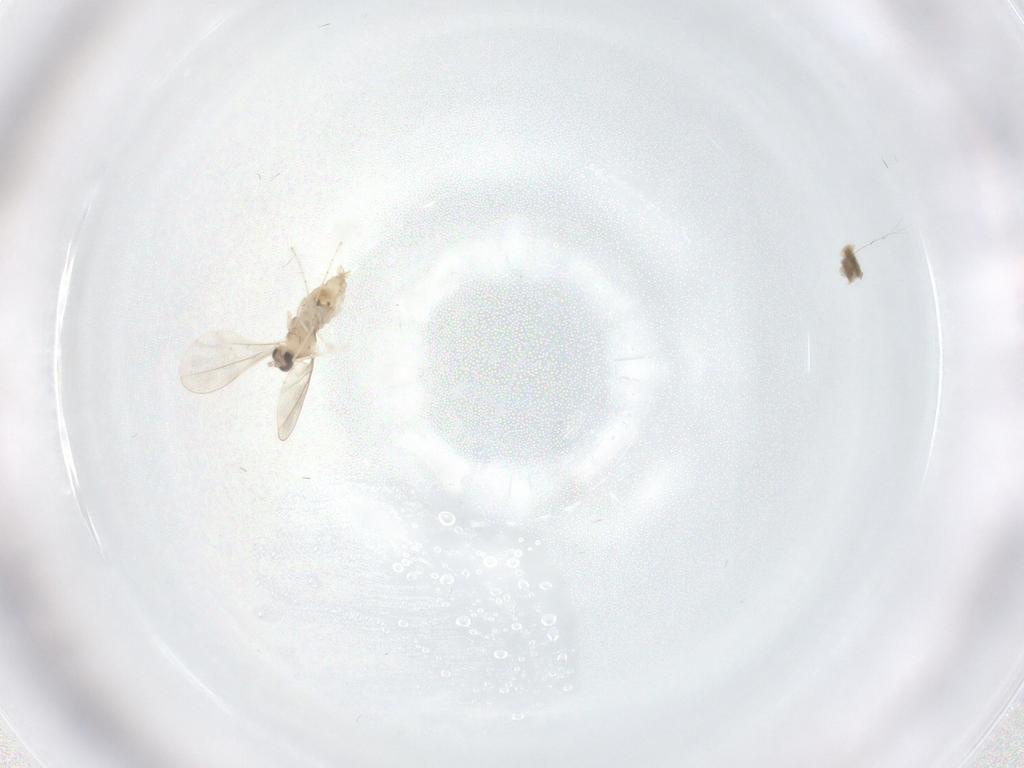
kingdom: Animalia
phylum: Arthropoda
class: Insecta
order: Diptera
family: Cecidomyiidae
